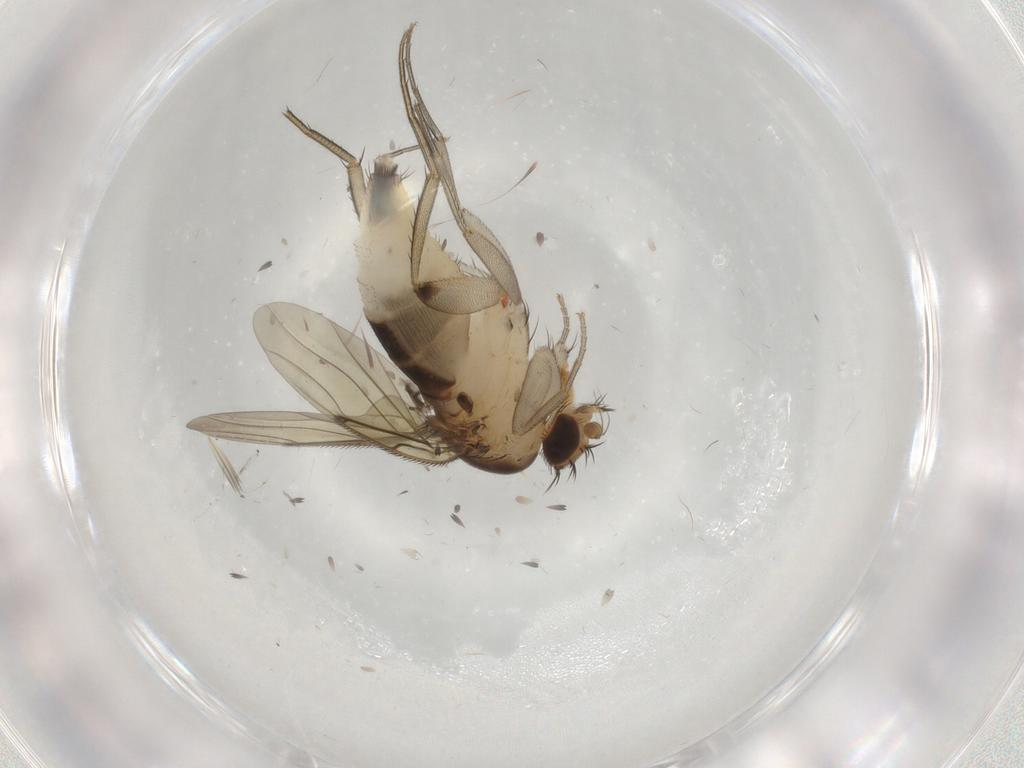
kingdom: Animalia
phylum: Arthropoda
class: Insecta
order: Diptera
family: Chironomidae
